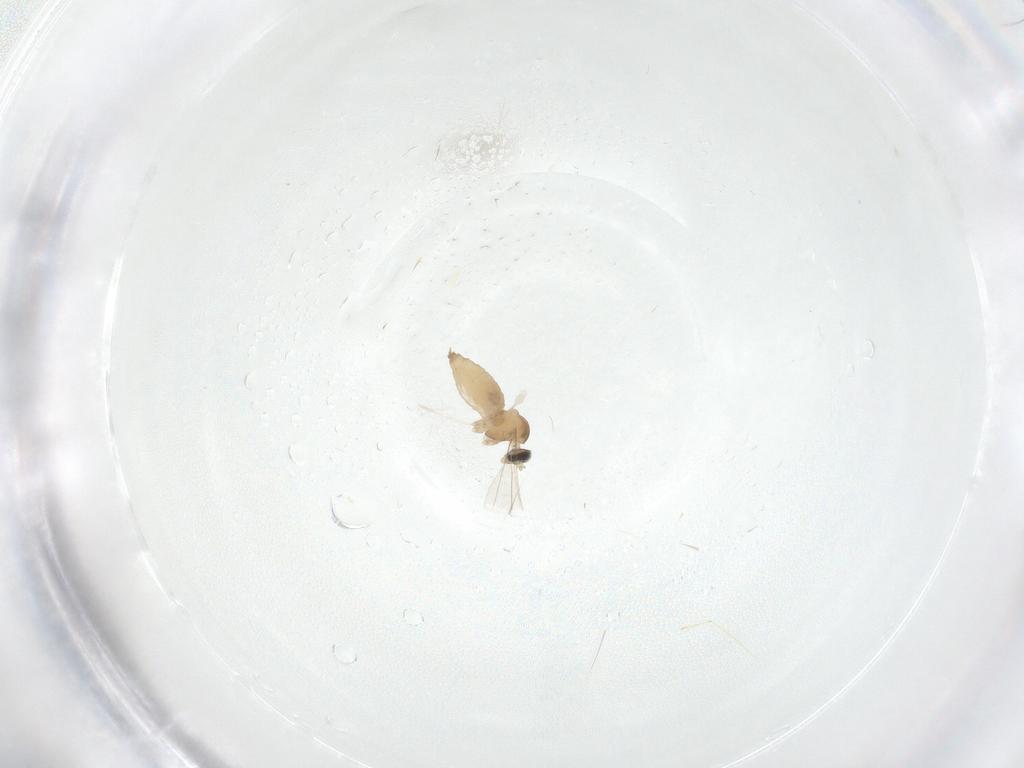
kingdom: Animalia
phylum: Arthropoda
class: Insecta
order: Diptera
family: Cecidomyiidae
